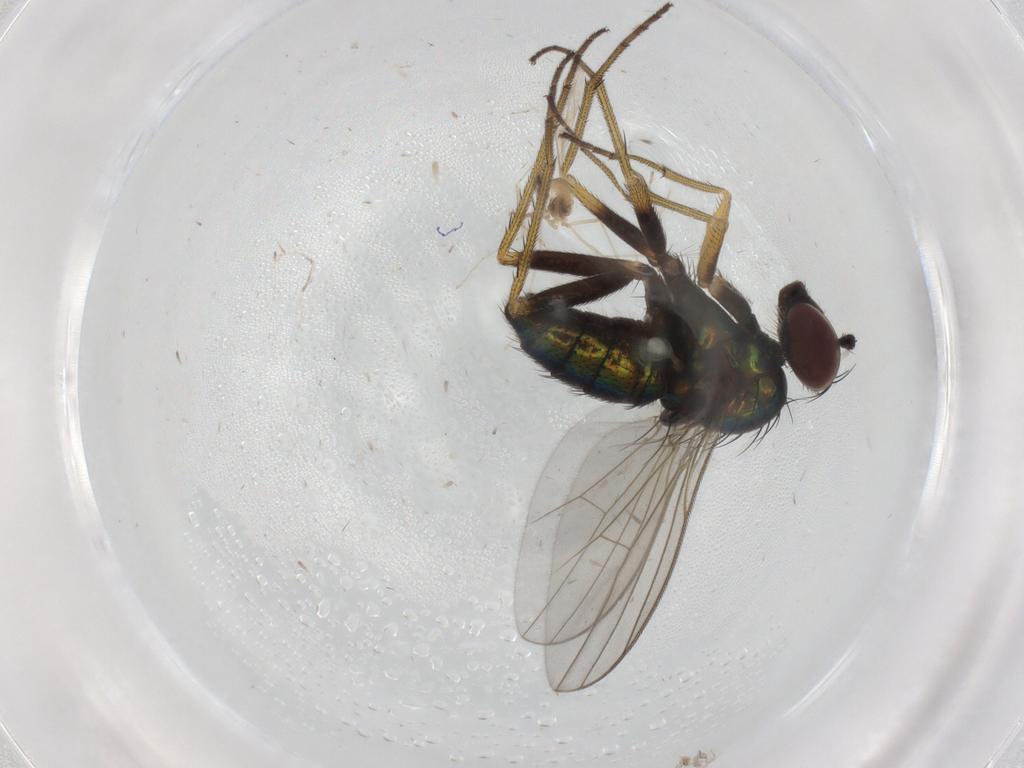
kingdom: Animalia
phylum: Arthropoda
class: Insecta
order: Diptera
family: Dolichopodidae
